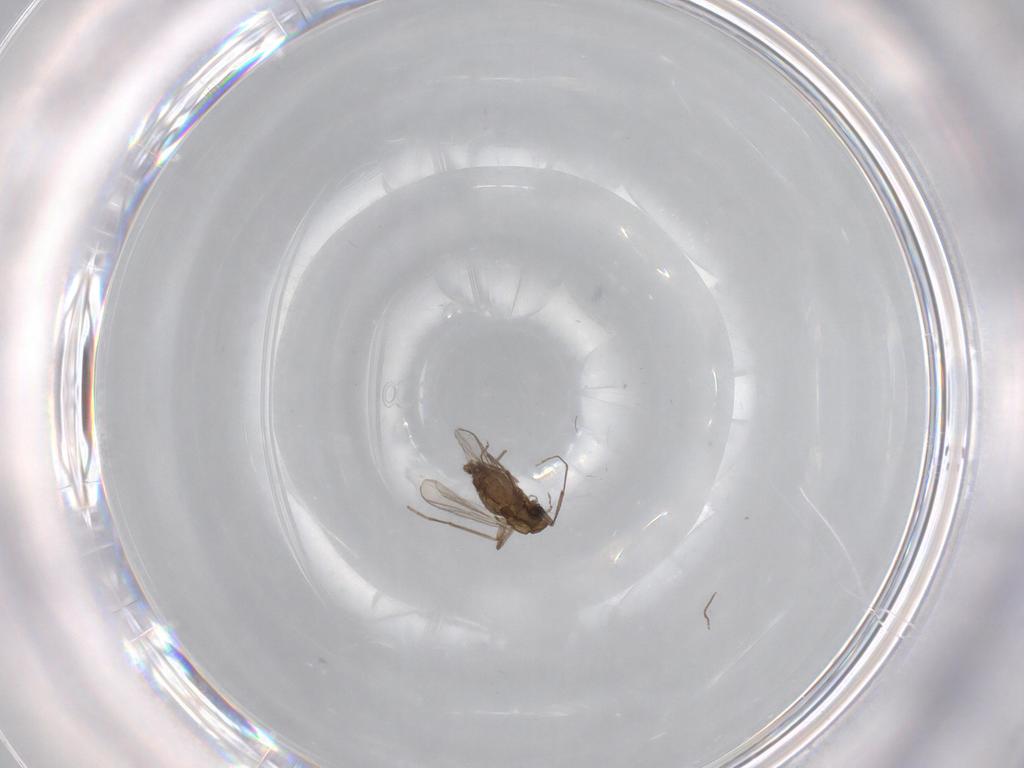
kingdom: Animalia
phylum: Arthropoda
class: Insecta
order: Diptera
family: Chironomidae
